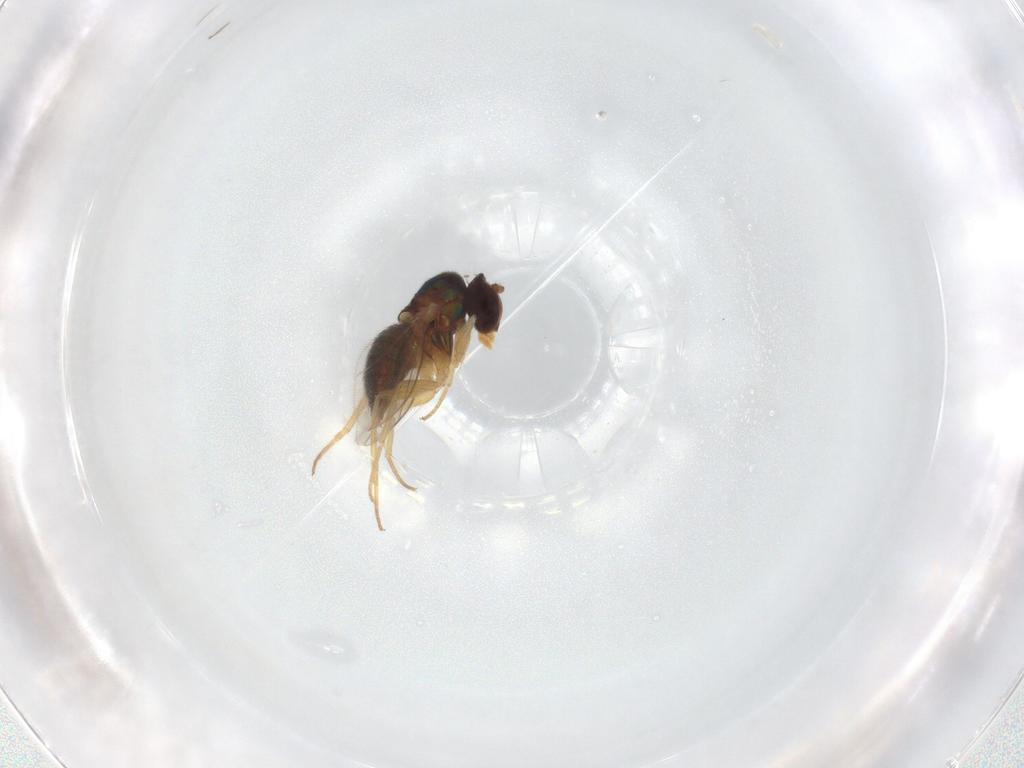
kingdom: Animalia
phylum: Arthropoda
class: Insecta
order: Diptera
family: Dolichopodidae
